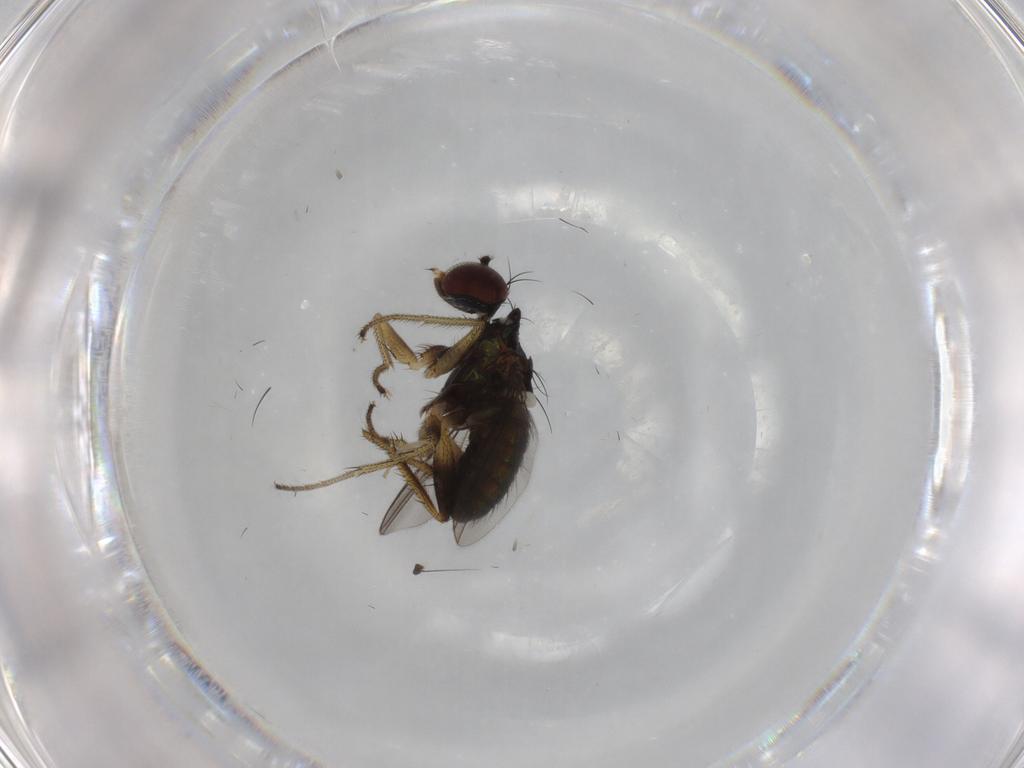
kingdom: Animalia
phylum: Arthropoda
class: Insecta
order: Diptera
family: Dolichopodidae
